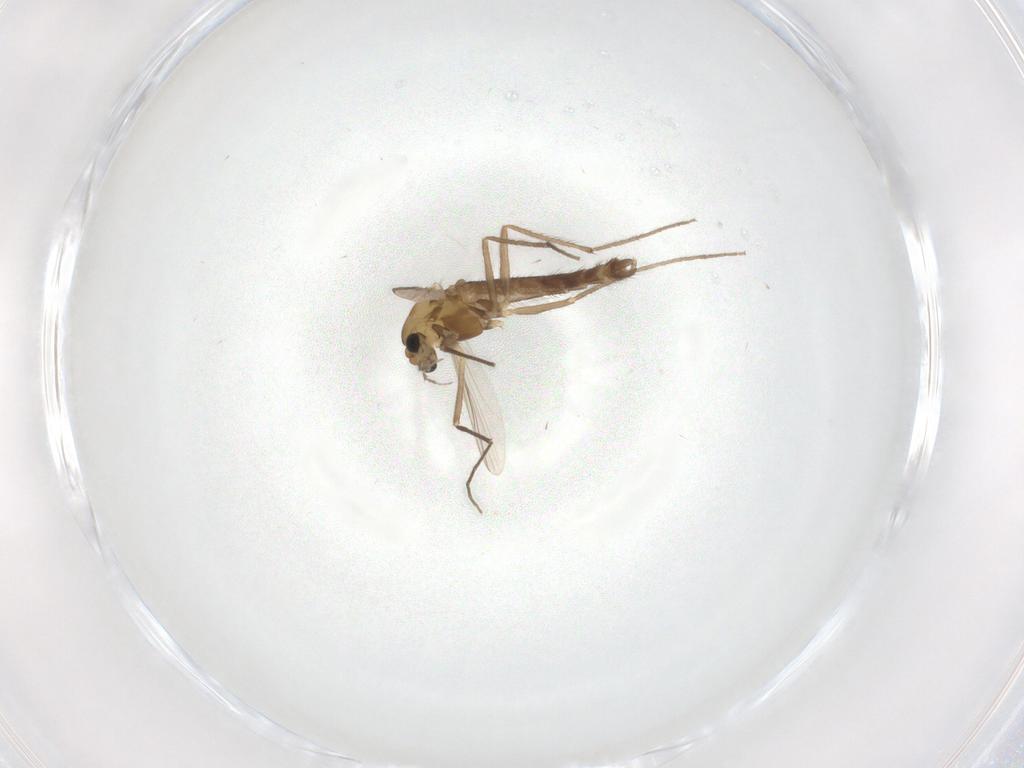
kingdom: Animalia
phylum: Arthropoda
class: Insecta
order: Diptera
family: Chironomidae
